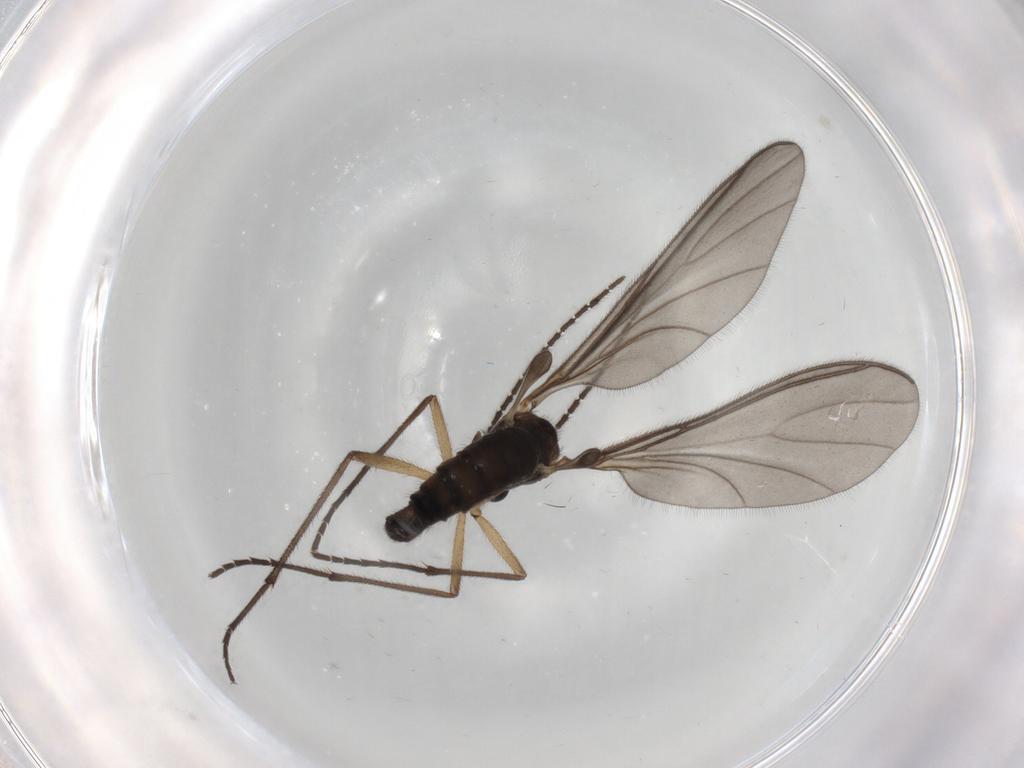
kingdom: Animalia
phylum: Arthropoda
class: Insecta
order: Diptera
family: Sciaridae
